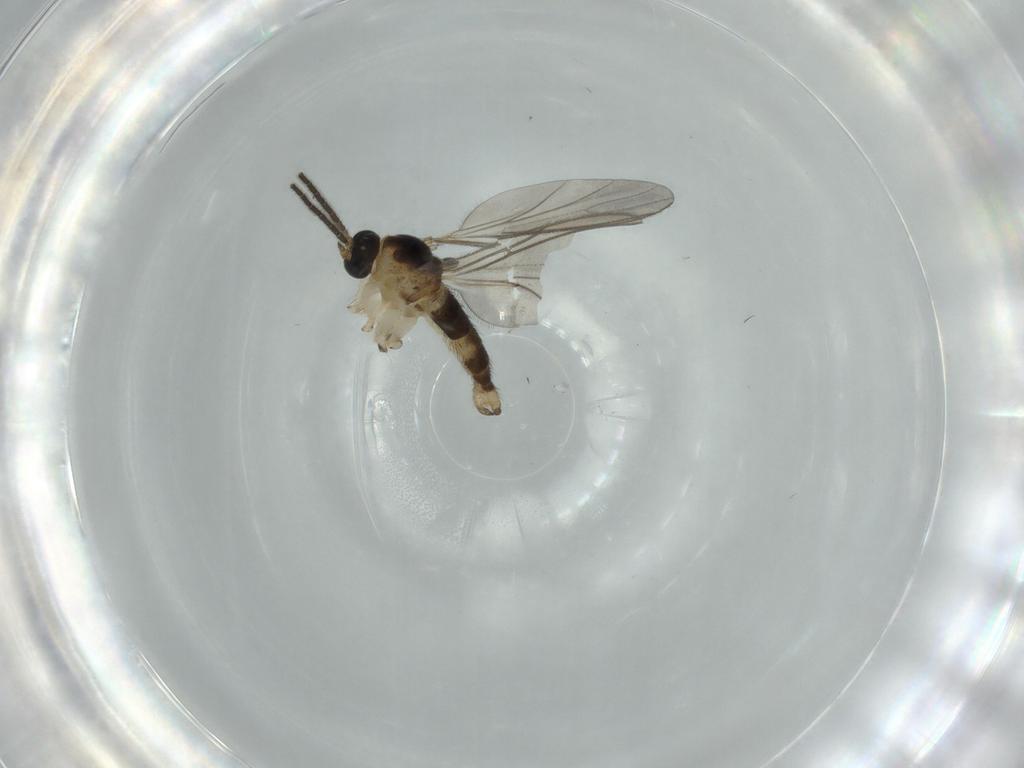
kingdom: Animalia
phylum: Arthropoda
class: Insecta
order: Diptera
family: Sciaridae
